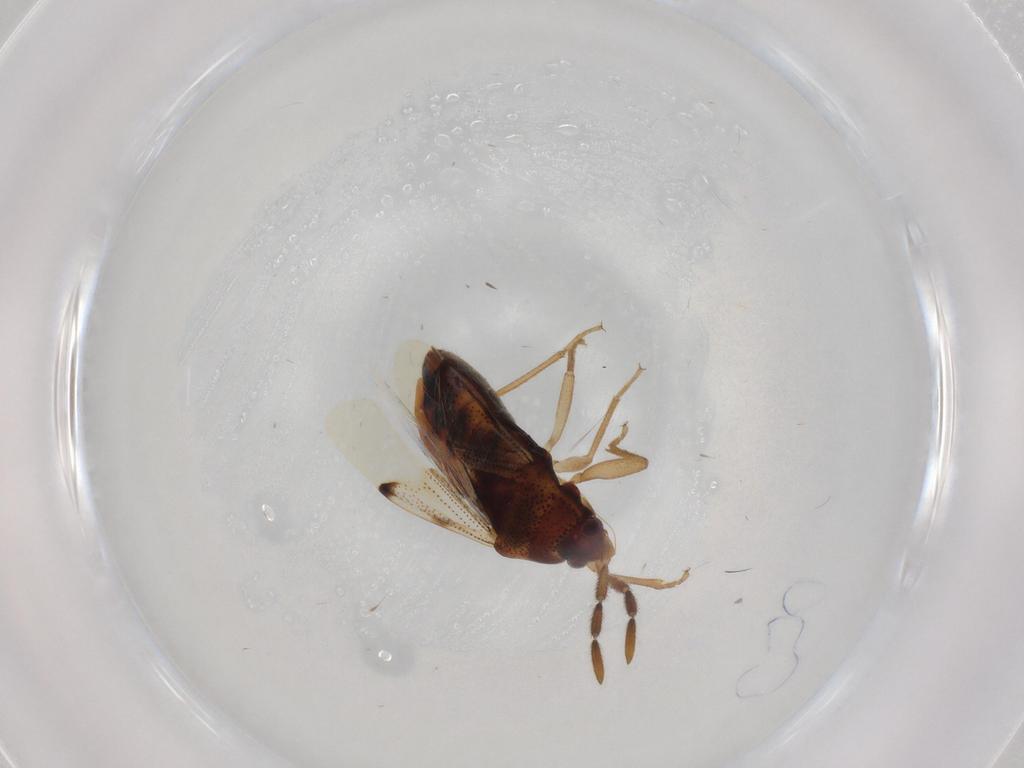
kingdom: Animalia
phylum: Arthropoda
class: Insecta
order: Hemiptera
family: Rhyparochromidae
